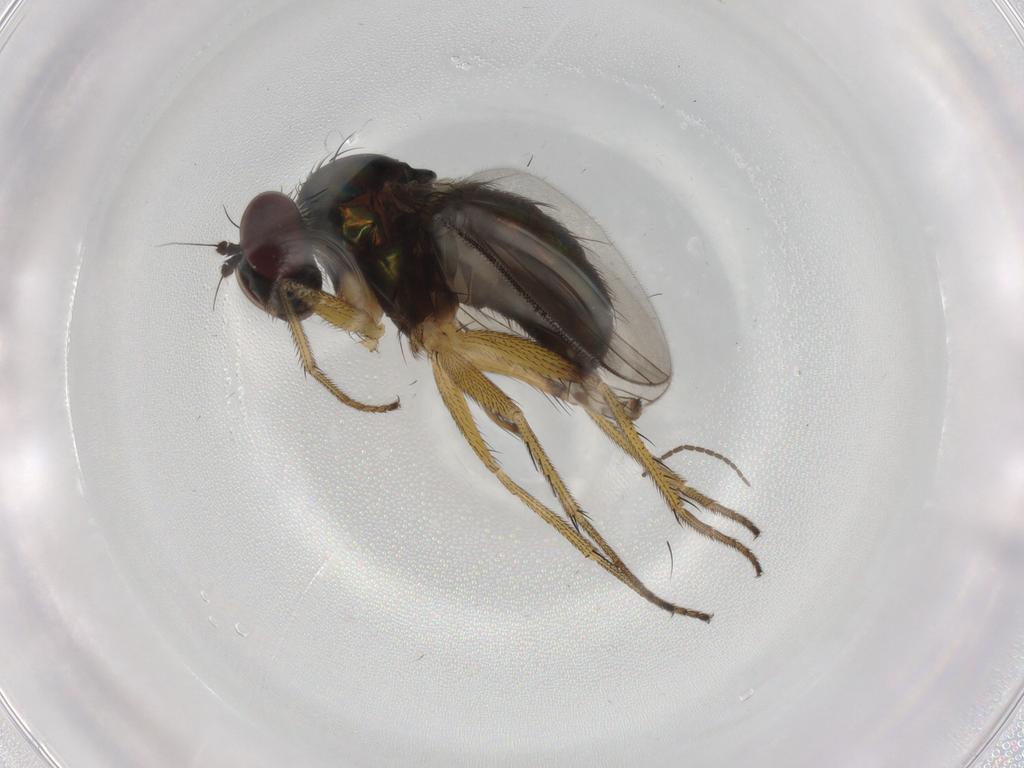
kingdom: Animalia
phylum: Arthropoda
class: Insecta
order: Diptera
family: Dolichopodidae
